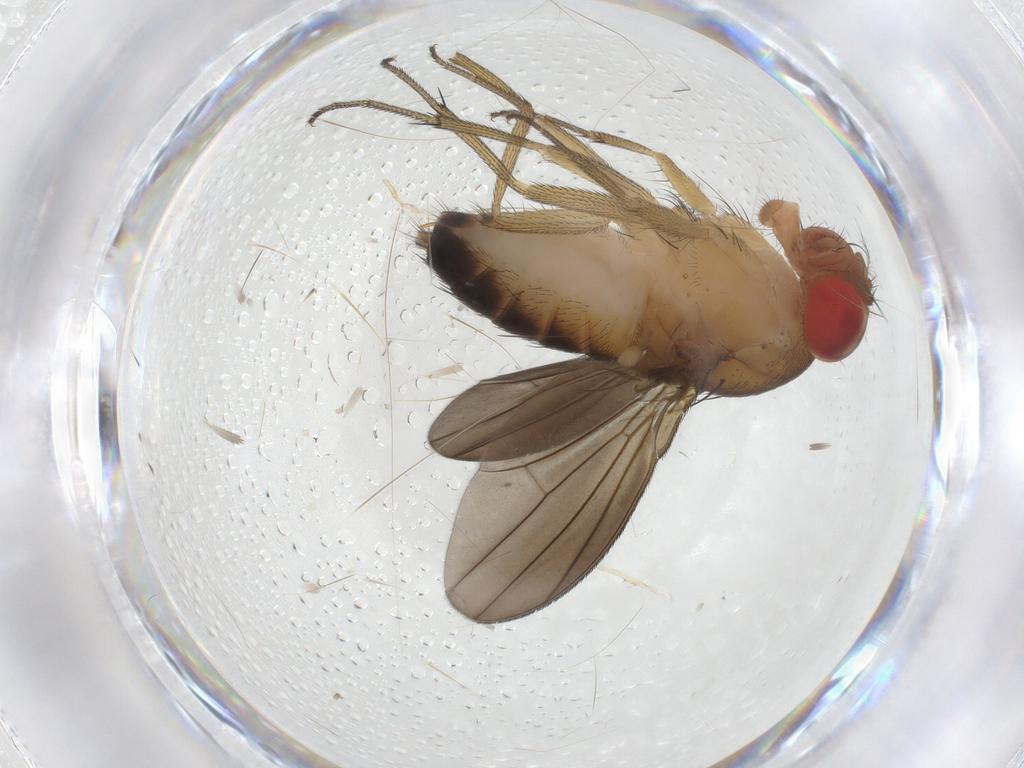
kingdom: Animalia
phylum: Arthropoda
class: Insecta
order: Diptera
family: Drosophilidae
